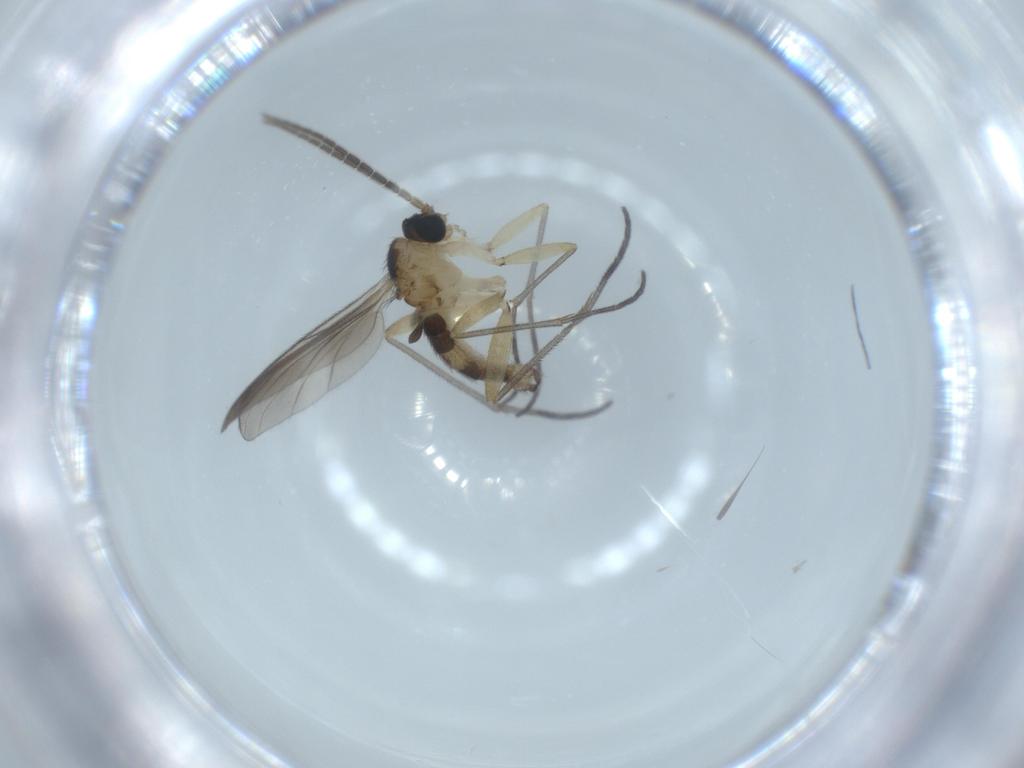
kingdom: Animalia
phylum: Arthropoda
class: Insecta
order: Diptera
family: Sciaridae
